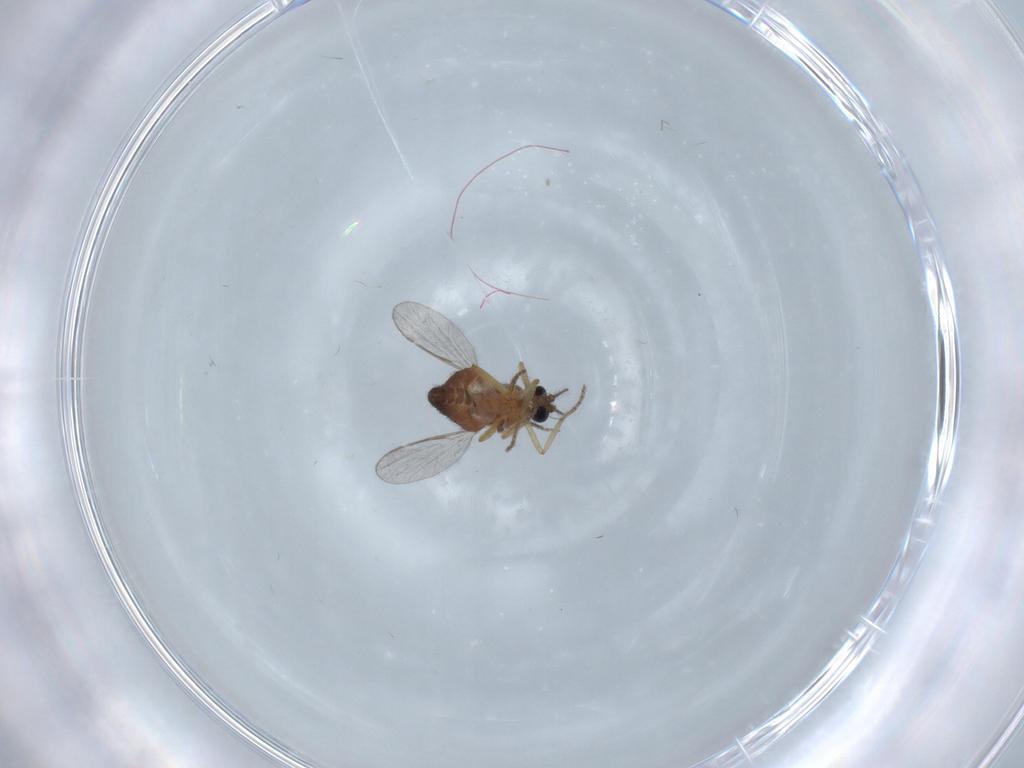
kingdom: Animalia
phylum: Arthropoda
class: Insecta
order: Diptera
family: Ceratopogonidae
